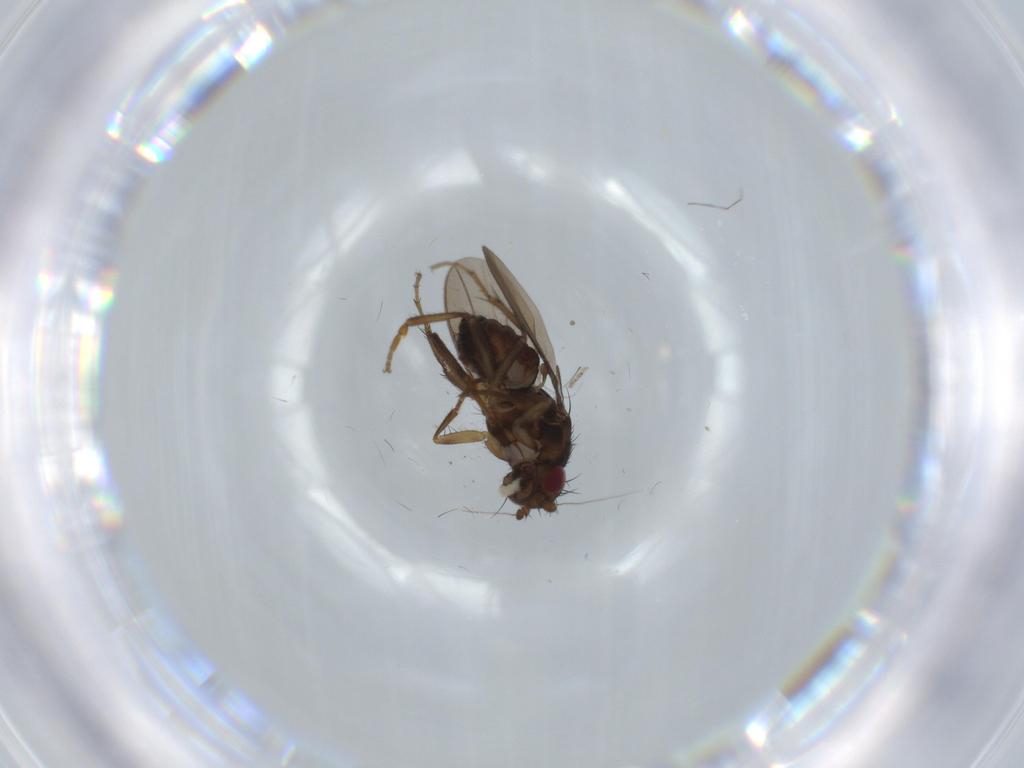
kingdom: Animalia
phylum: Arthropoda
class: Insecta
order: Diptera
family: Sphaeroceridae
